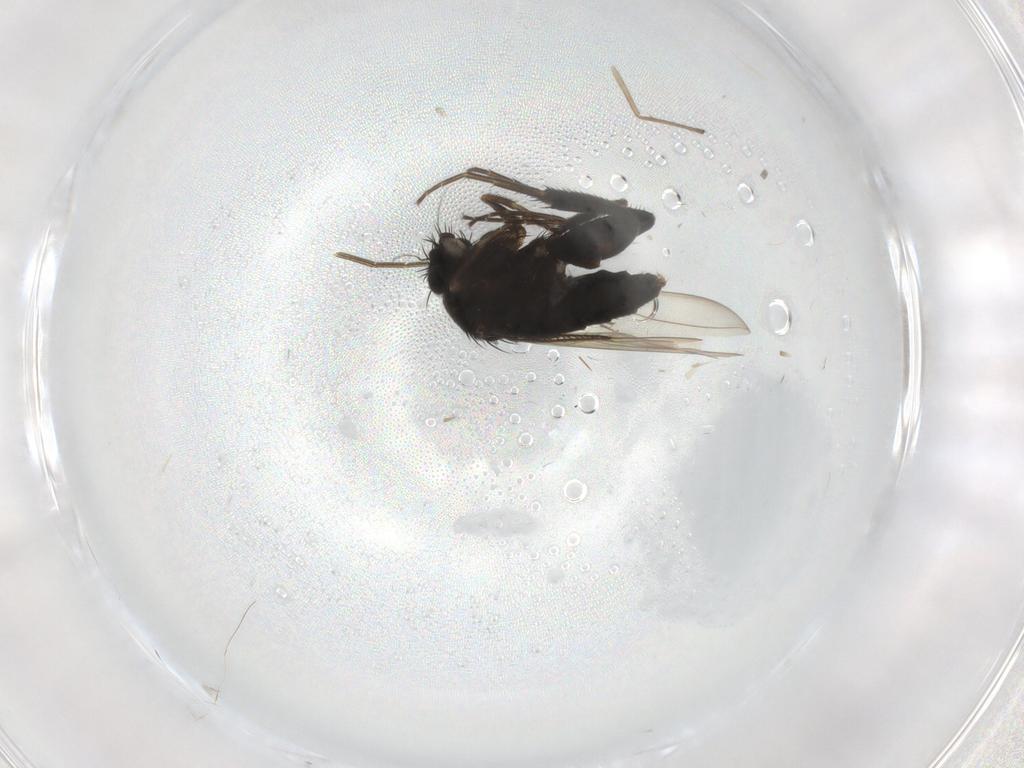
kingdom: Animalia
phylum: Arthropoda
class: Insecta
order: Diptera
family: Phoridae
